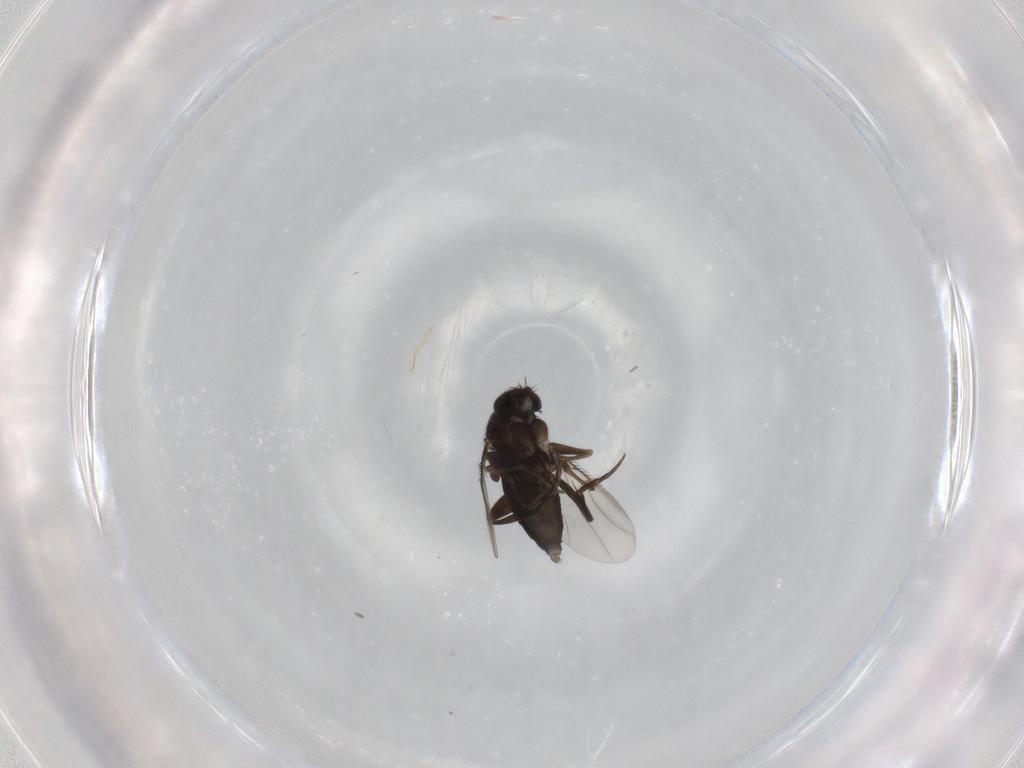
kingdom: Animalia
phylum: Arthropoda
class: Insecta
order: Diptera
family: Phoridae
